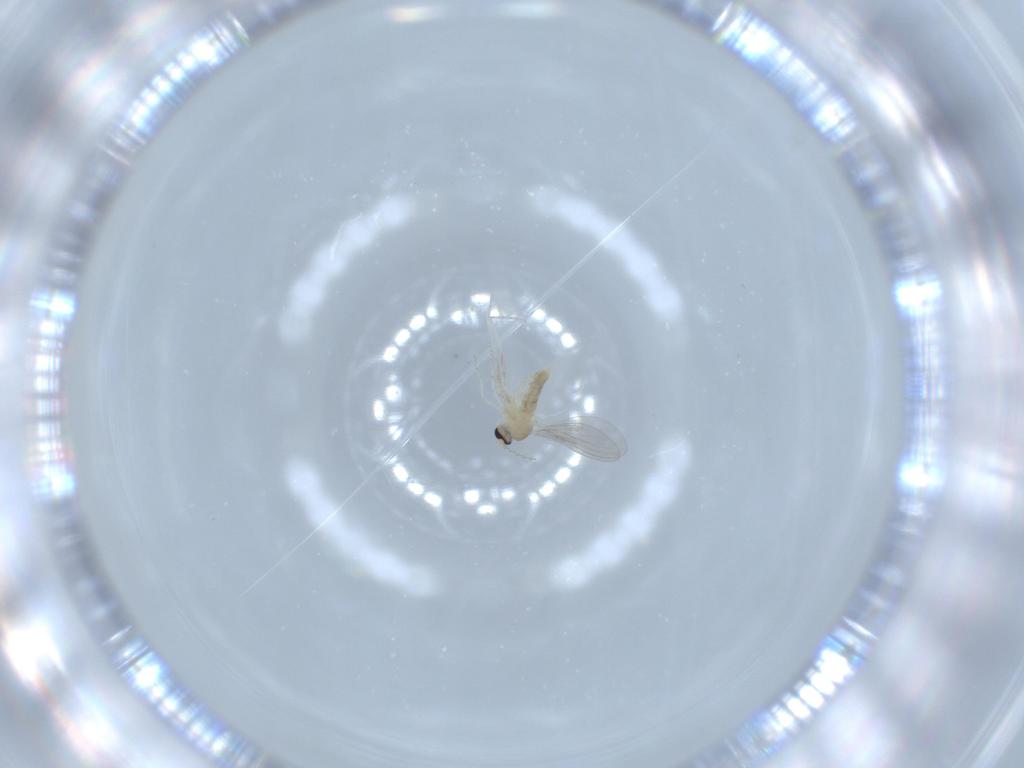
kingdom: Animalia
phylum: Arthropoda
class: Insecta
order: Diptera
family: Cecidomyiidae
